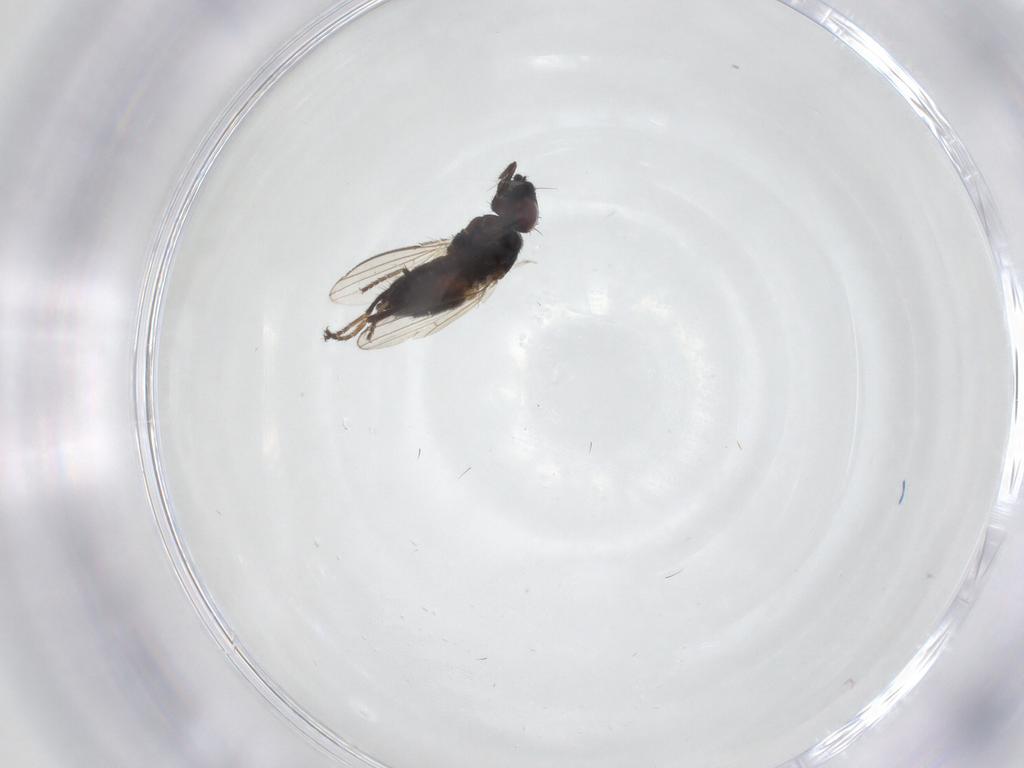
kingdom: Animalia
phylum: Arthropoda
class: Insecta
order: Diptera
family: Milichiidae
